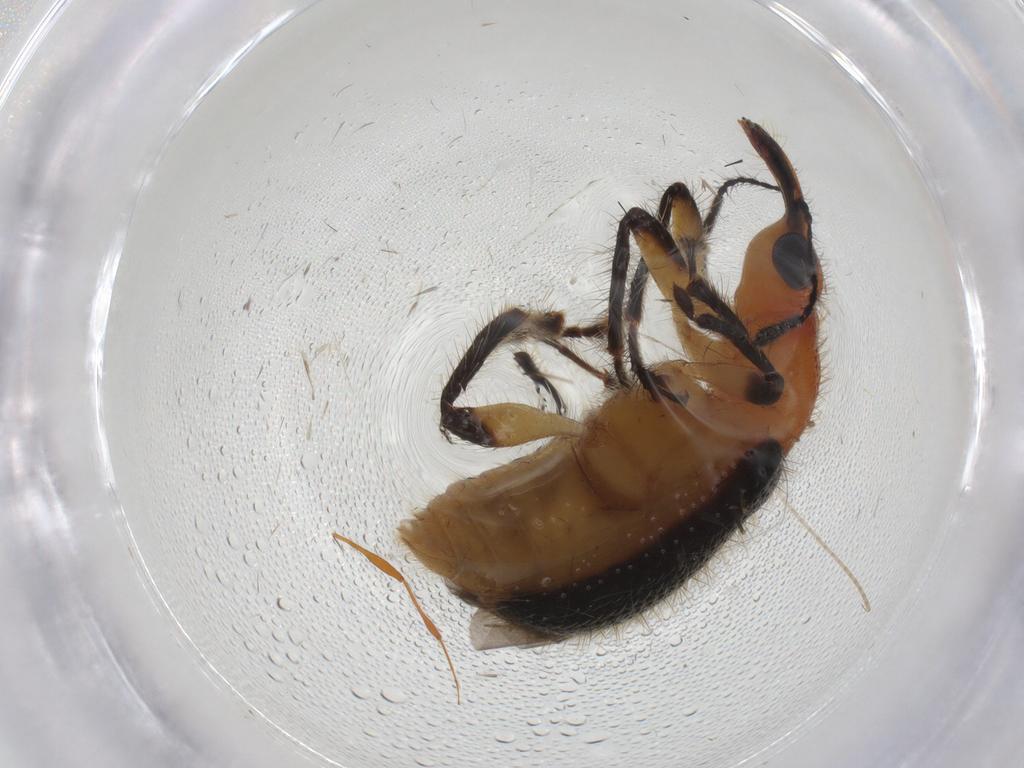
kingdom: Animalia
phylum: Arthropoda
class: Insecta
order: Coleoptera
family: Attelabidae
